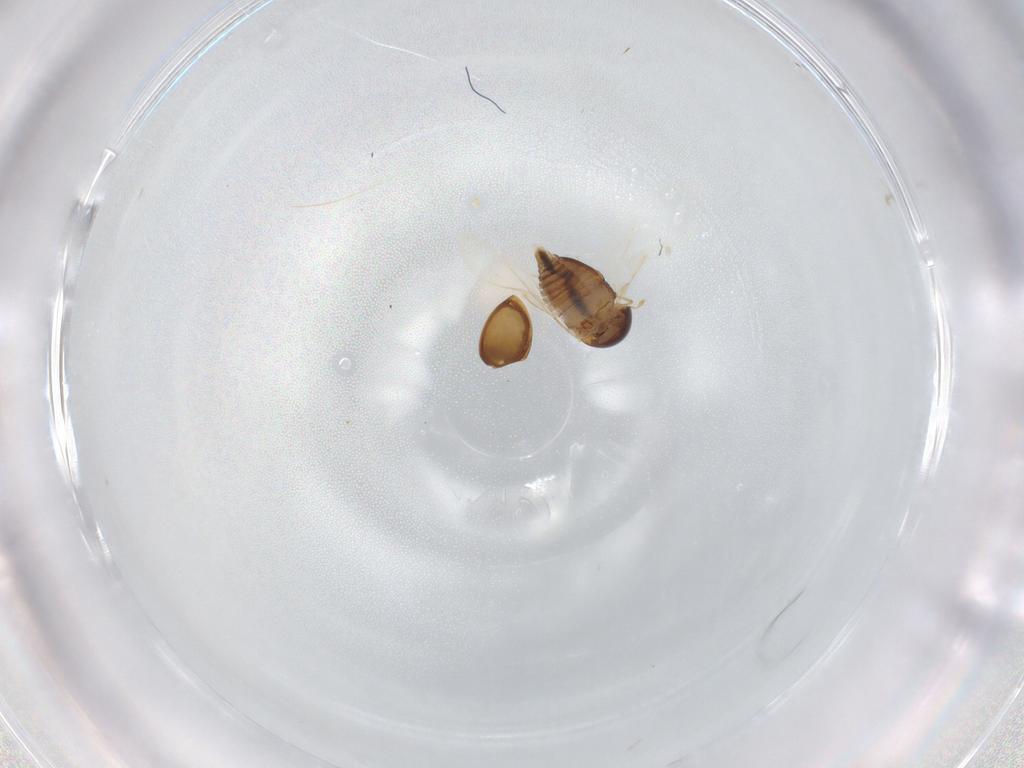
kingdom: Animalia
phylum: Arthropoda
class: Insecta
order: Coleoptera
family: Clambidae
